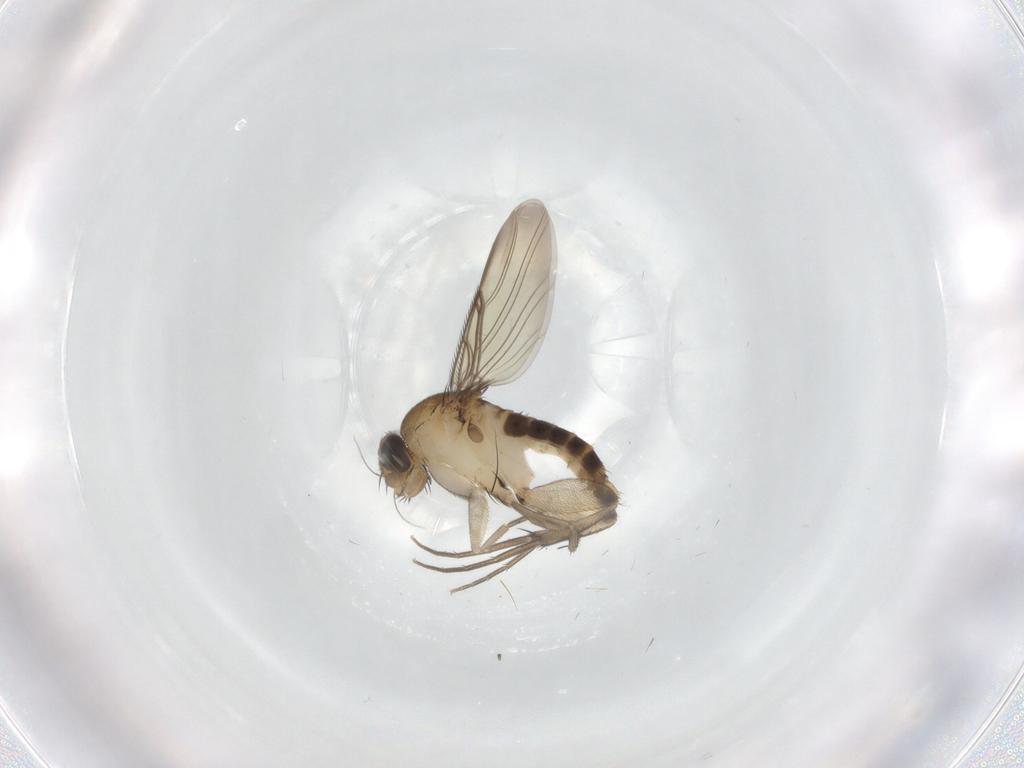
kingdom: Animalia
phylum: Arthropoda
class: Insecta
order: Diptera
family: Phoridae
